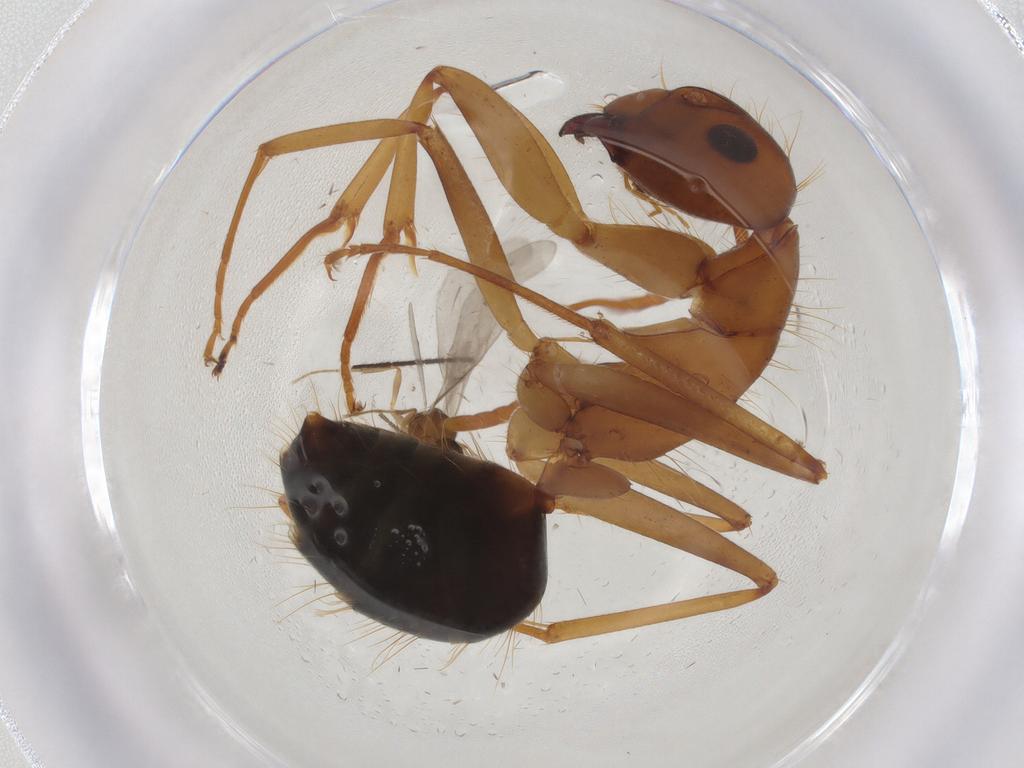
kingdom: Animalia
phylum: Arthropoda
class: Insecta
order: Hymenoptera
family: Formicidae
